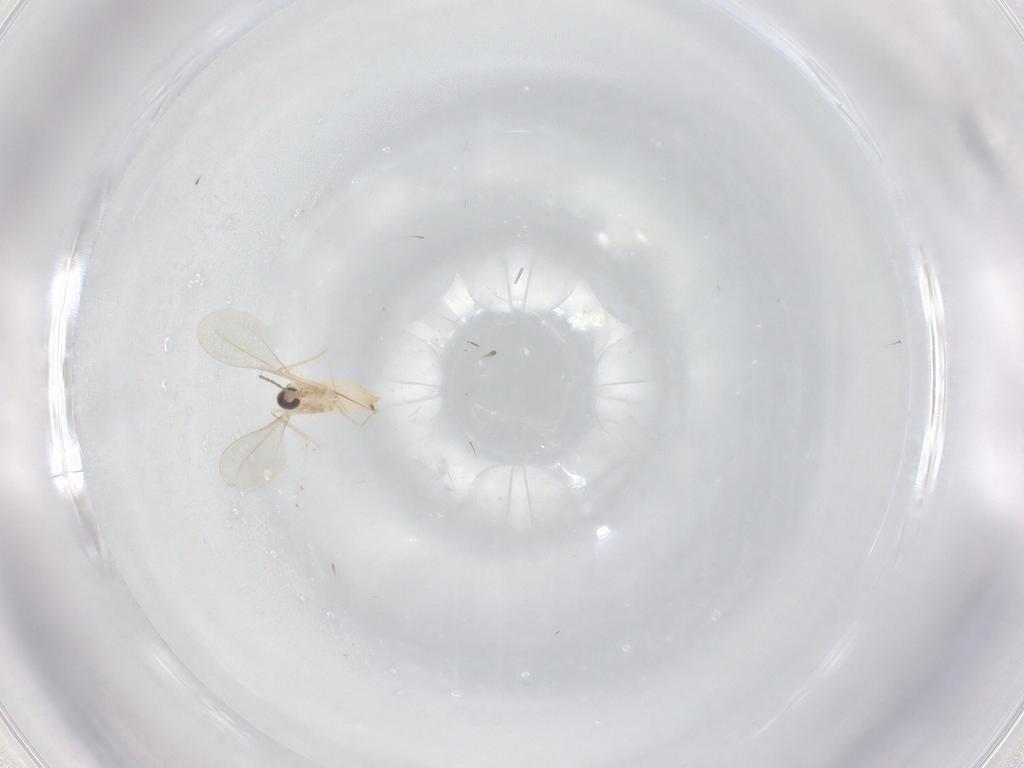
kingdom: Animalia
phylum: Arthropoda
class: Insecta
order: Diptera
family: Cecidomyiidae
